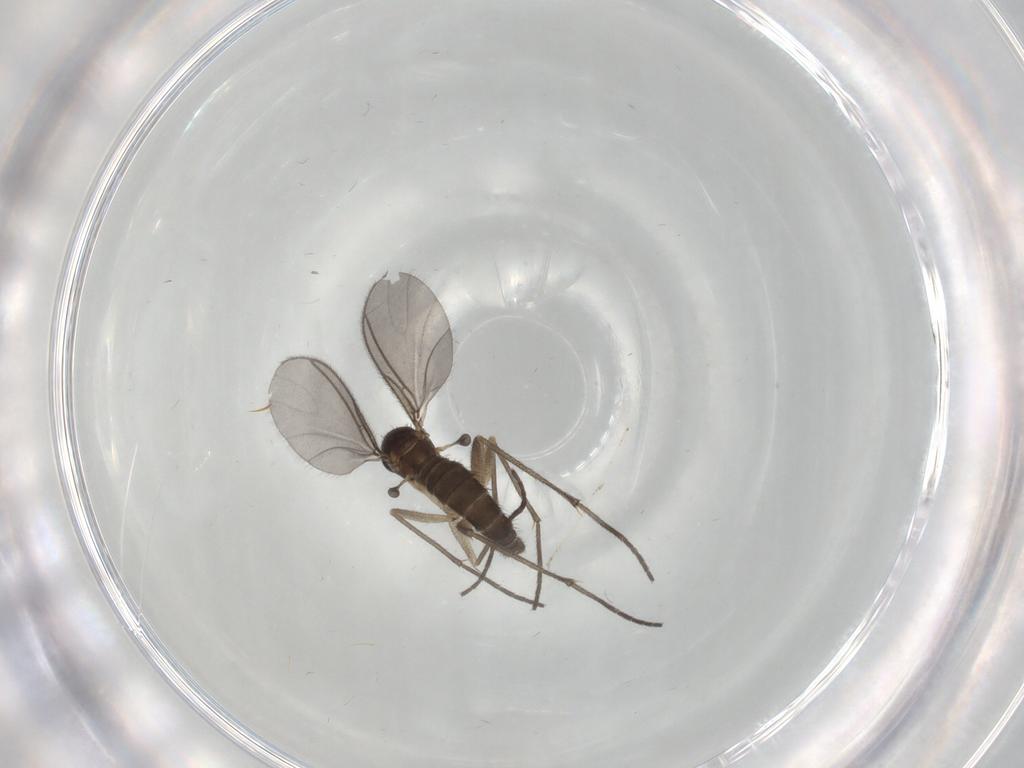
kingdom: Animalia
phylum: Arthropoda
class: Insecta
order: Diptera
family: Sciaridae
